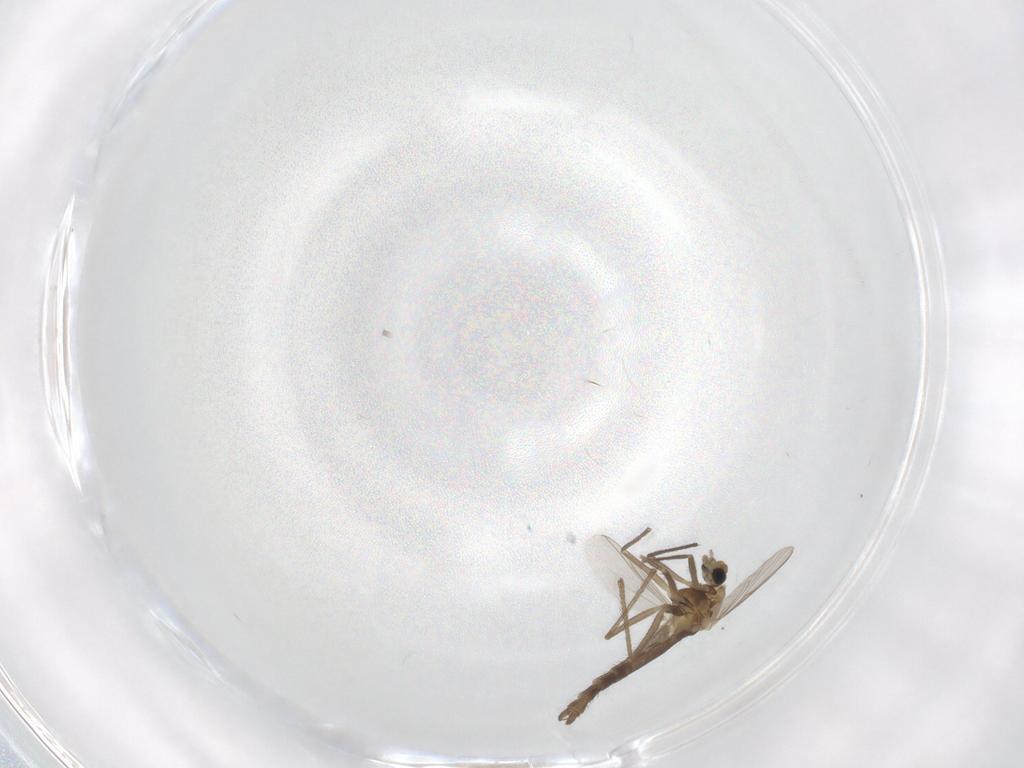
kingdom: Animalia
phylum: Arthropoda
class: Insecta
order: Diptera
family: Chironomidae
